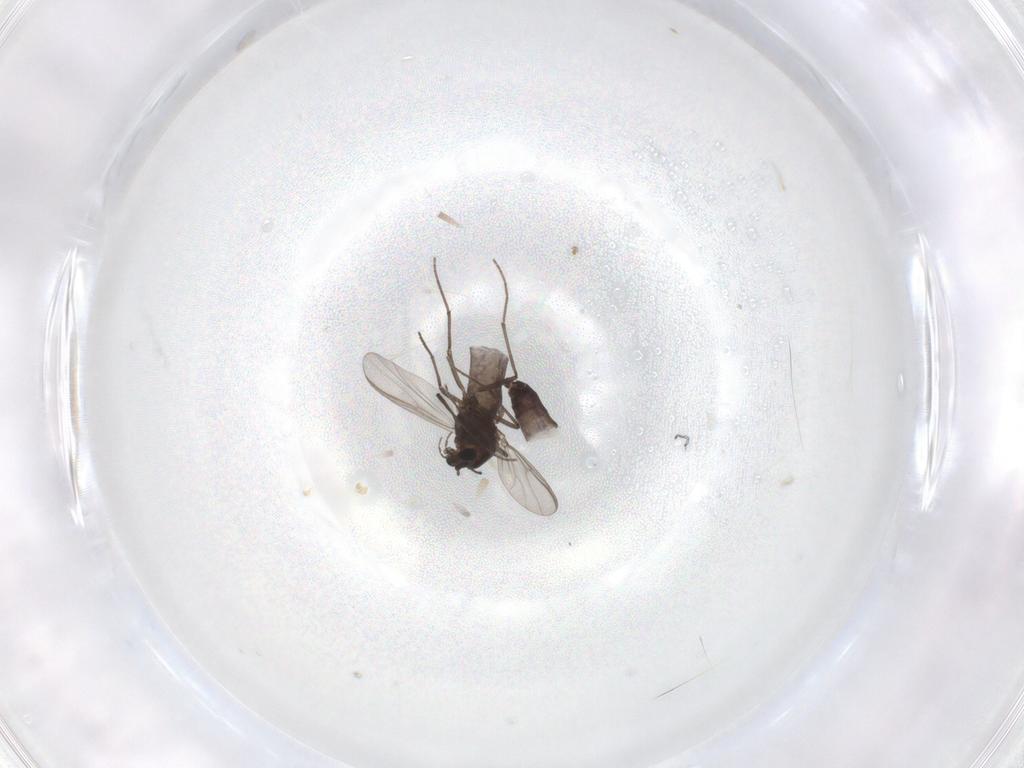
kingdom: Animalia
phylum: Arthropoda
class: Insecta
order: Diptera
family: Chironomidae
